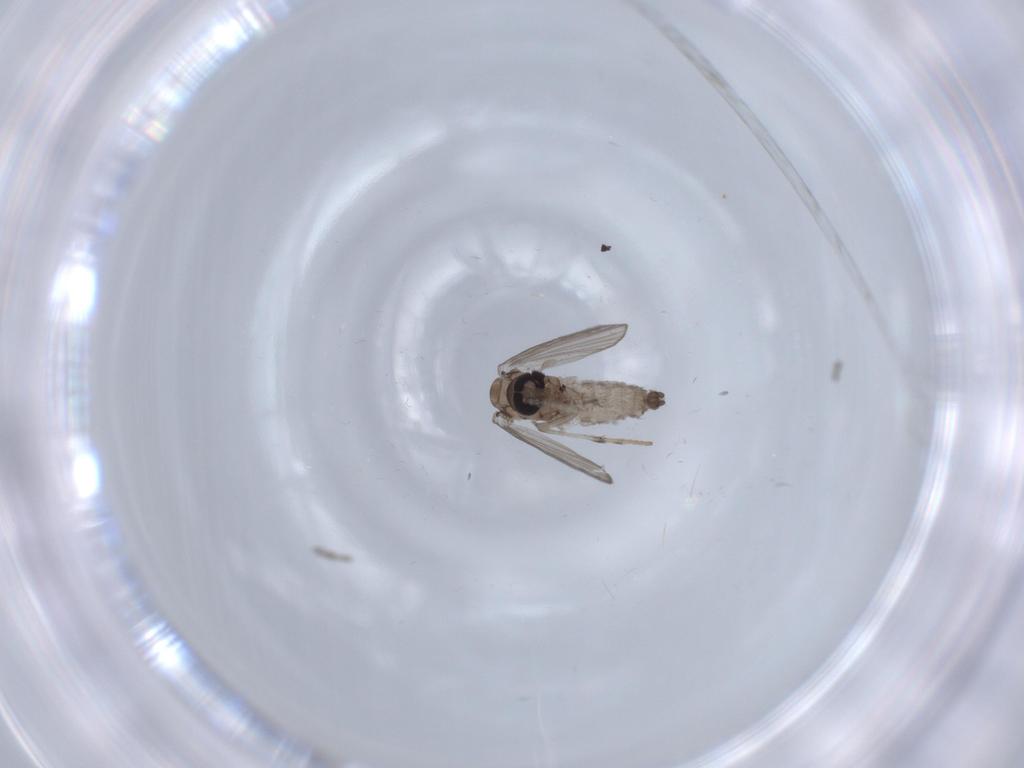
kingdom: Animalia
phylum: Arthropoda
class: Insecta
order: Diptera
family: Psychodidae
